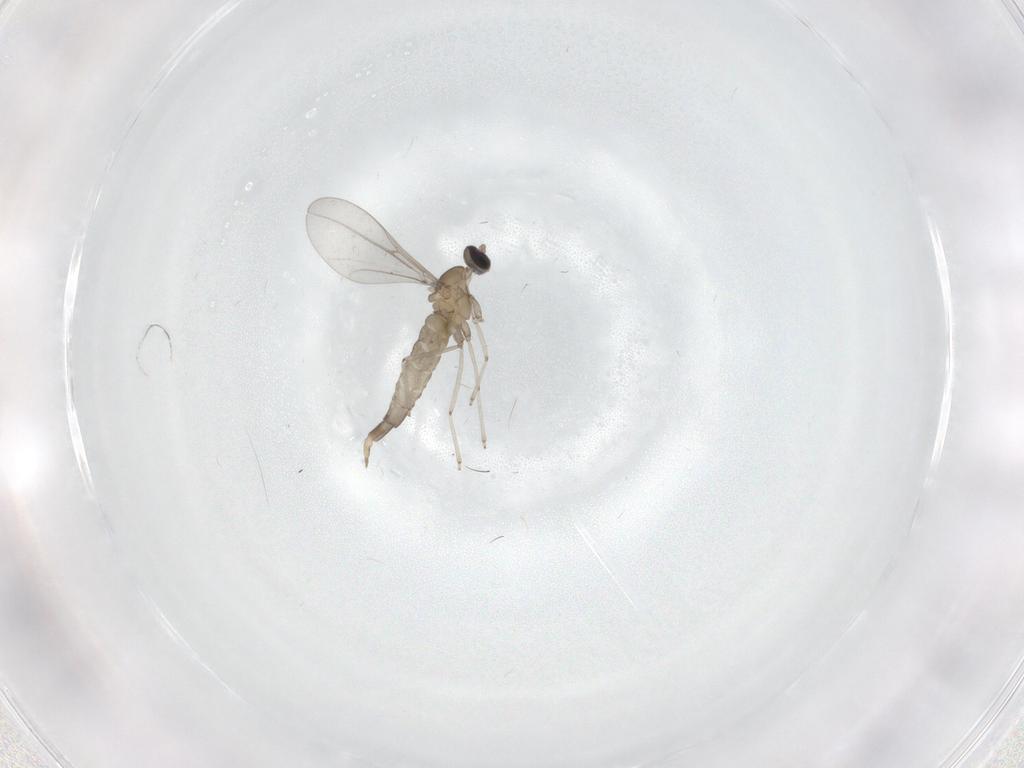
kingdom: Animalia
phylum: Arthropoda
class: Insecta
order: Diptera
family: Cecidomyiidae
